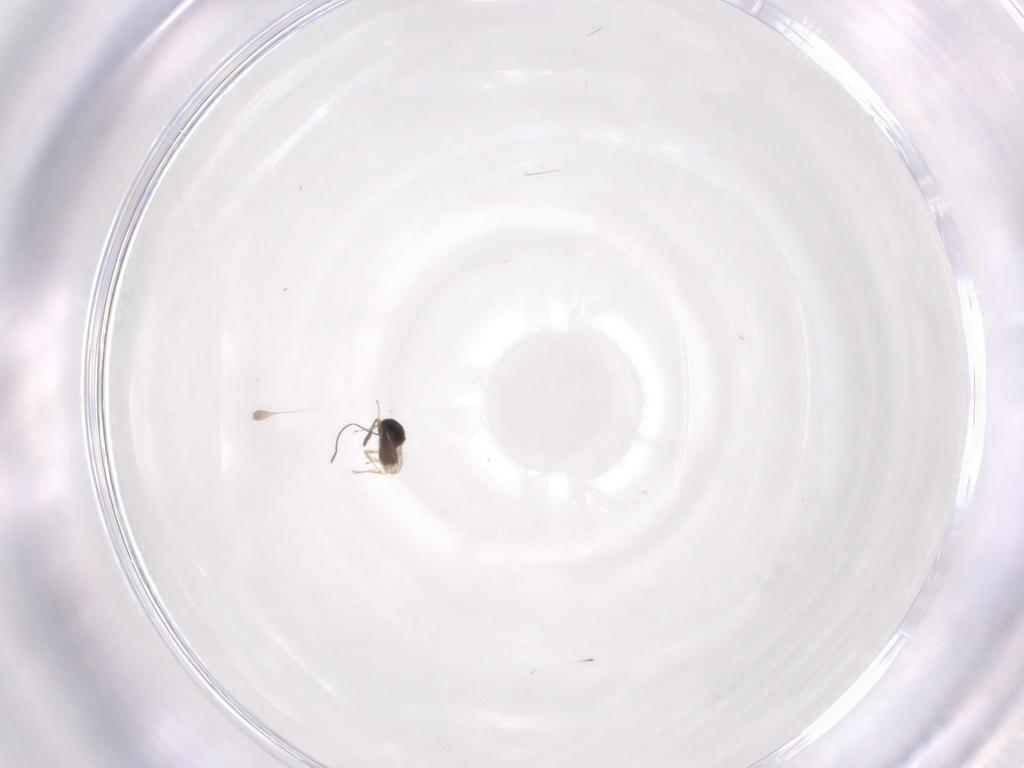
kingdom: Animalia
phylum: Arthropoda
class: Insecta
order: Hymenoptera
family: Scelionidae
